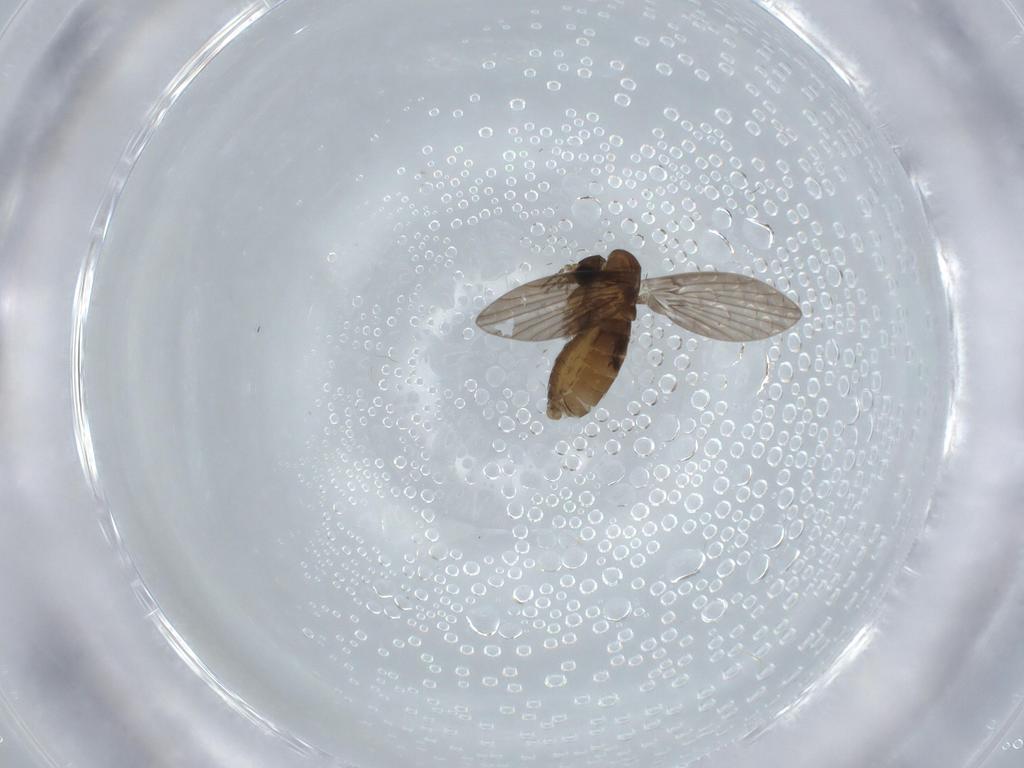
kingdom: Animalia
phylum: Arthropoda
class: Insecta
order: Diptera
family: Psychodidae
